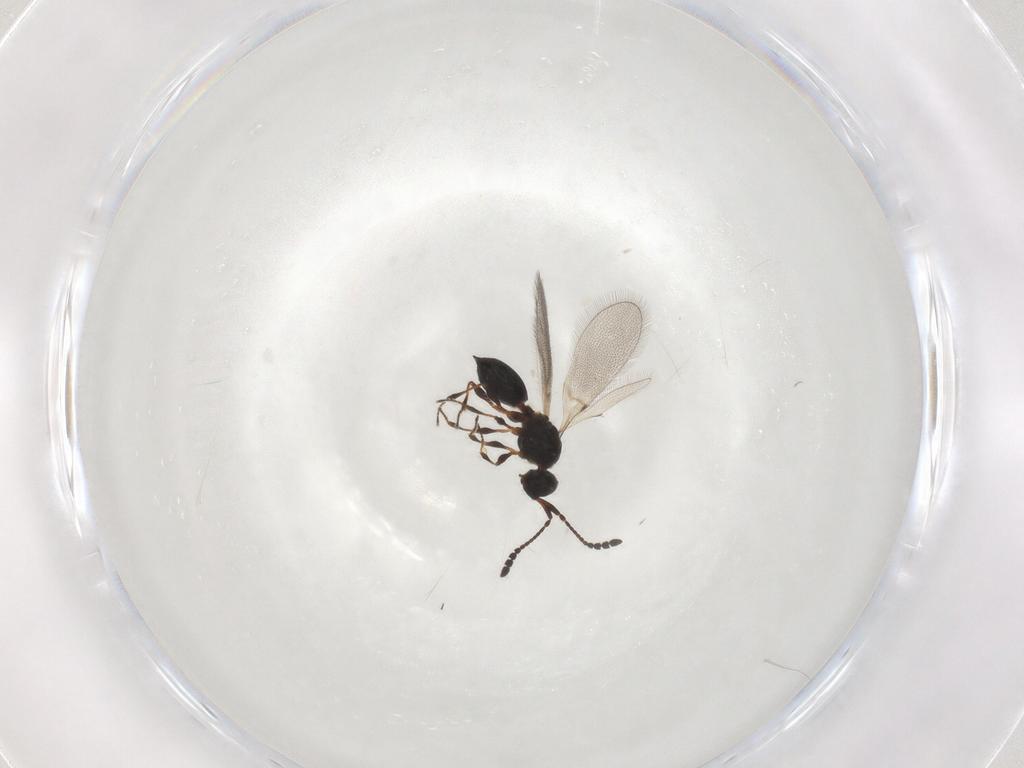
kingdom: Animalia
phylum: Arthropoda
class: Insecta
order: Hymenoptera
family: Diapriidae
